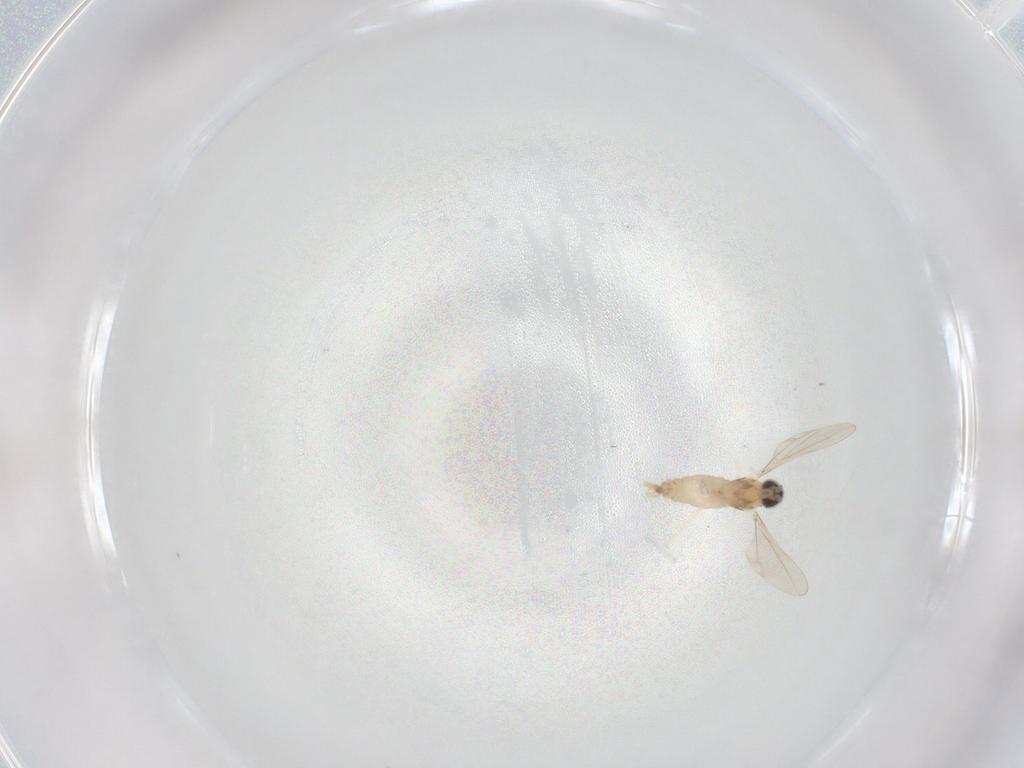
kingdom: Animalia
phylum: Arthropoda
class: Insecta
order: Diptera
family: Cecidomyiidae
